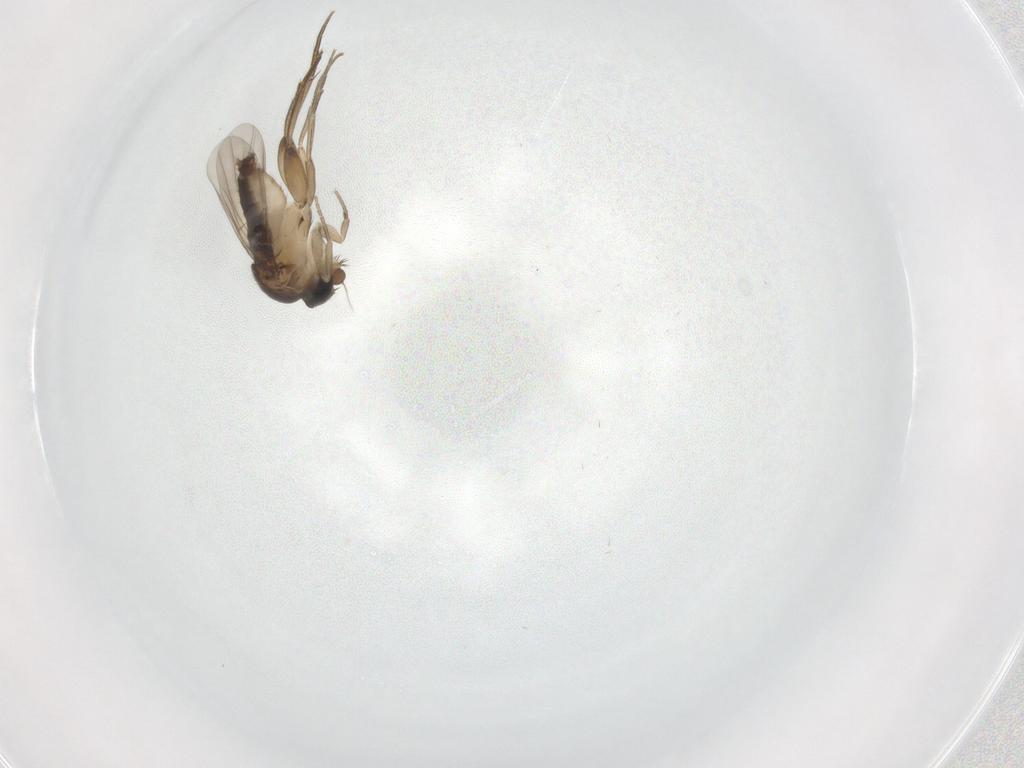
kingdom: Animalia
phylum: Arthropoda
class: Insecta
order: Diptera
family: Phoridae
